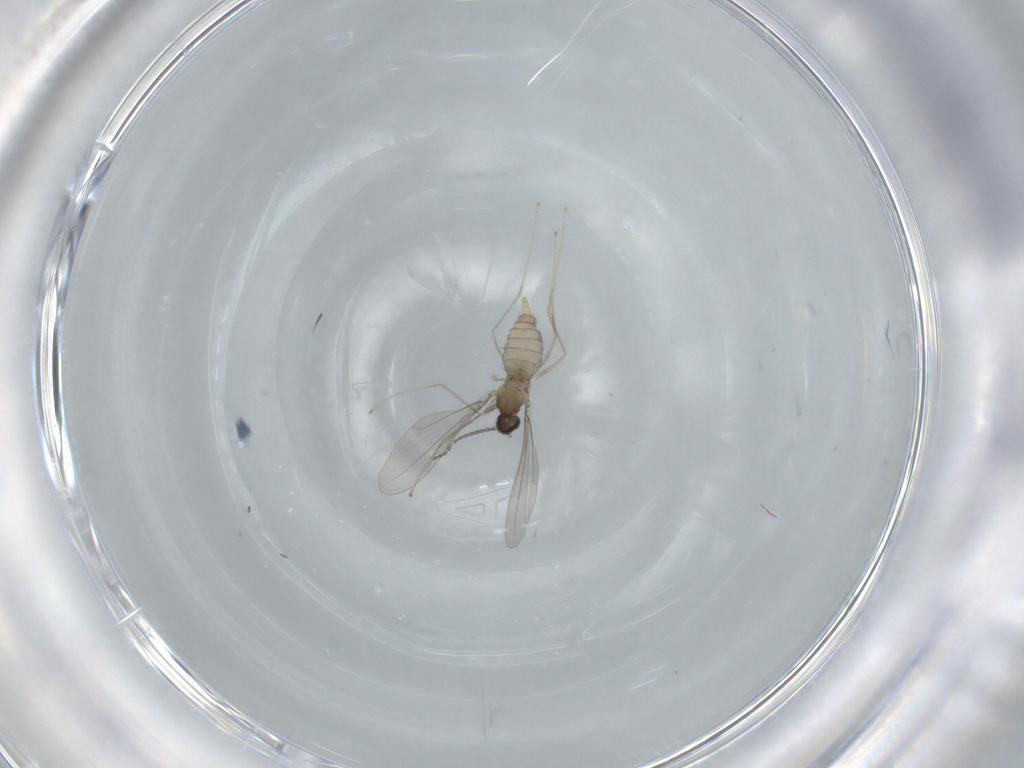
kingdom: Animalia
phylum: Arthropoda
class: Insecta
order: Diptera
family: Cecidomyiidae
